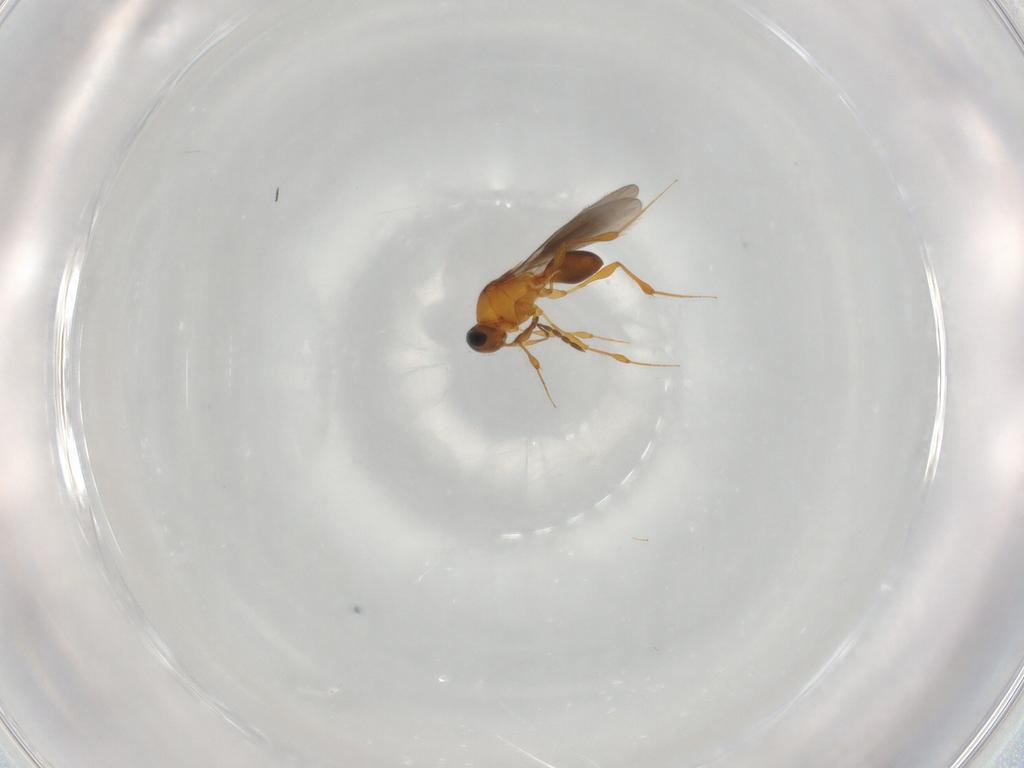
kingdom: Animalia
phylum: Arthropoda
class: Insecta
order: Hymenoptera
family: Platygastridae
